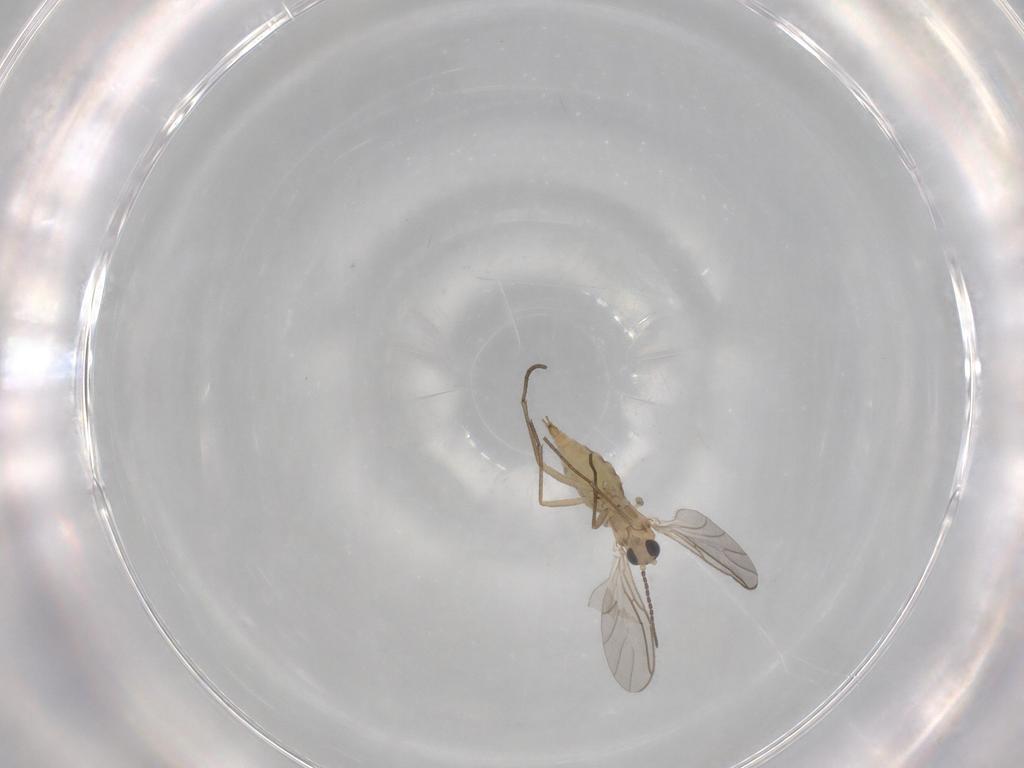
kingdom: Animalia
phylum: Arthropoda
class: Insecta
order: Diptera
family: Sciaridae
